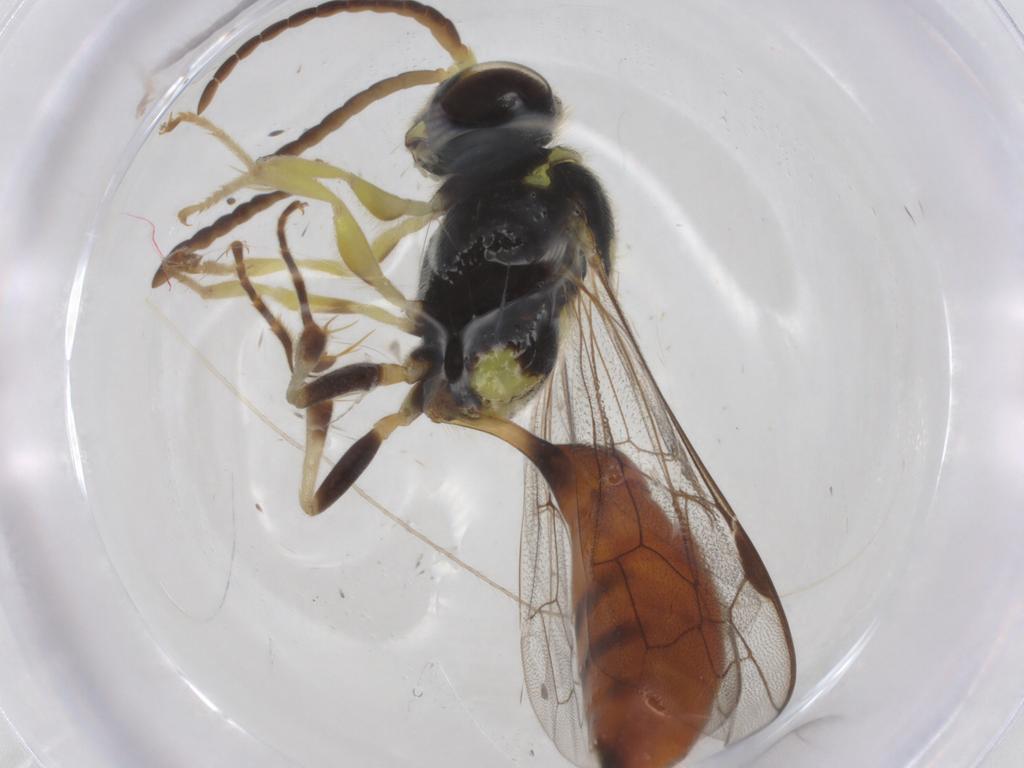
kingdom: Animalia
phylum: Arthropoda
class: Insecta
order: Hymenoptera
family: Crabronidae
